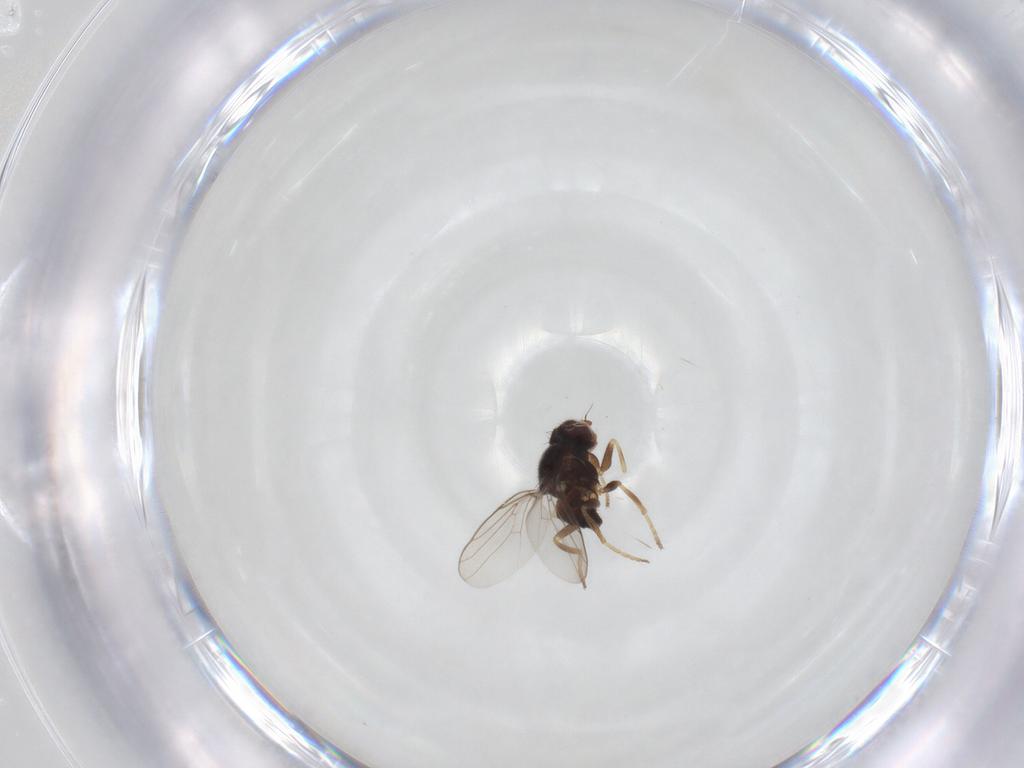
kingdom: Animalia
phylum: Arthropoda
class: Insecta
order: Diptera
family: Chloropidae
